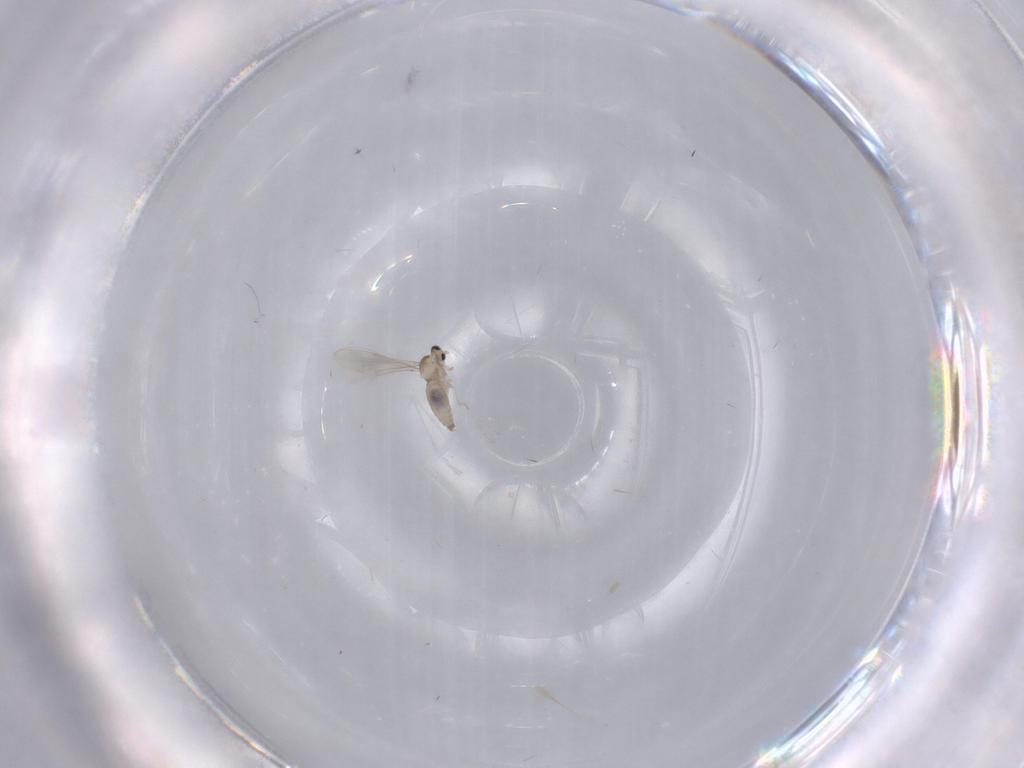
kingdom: Animalia
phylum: Arthropoda
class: Insecta
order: Diptera
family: Cecidomyiidae
